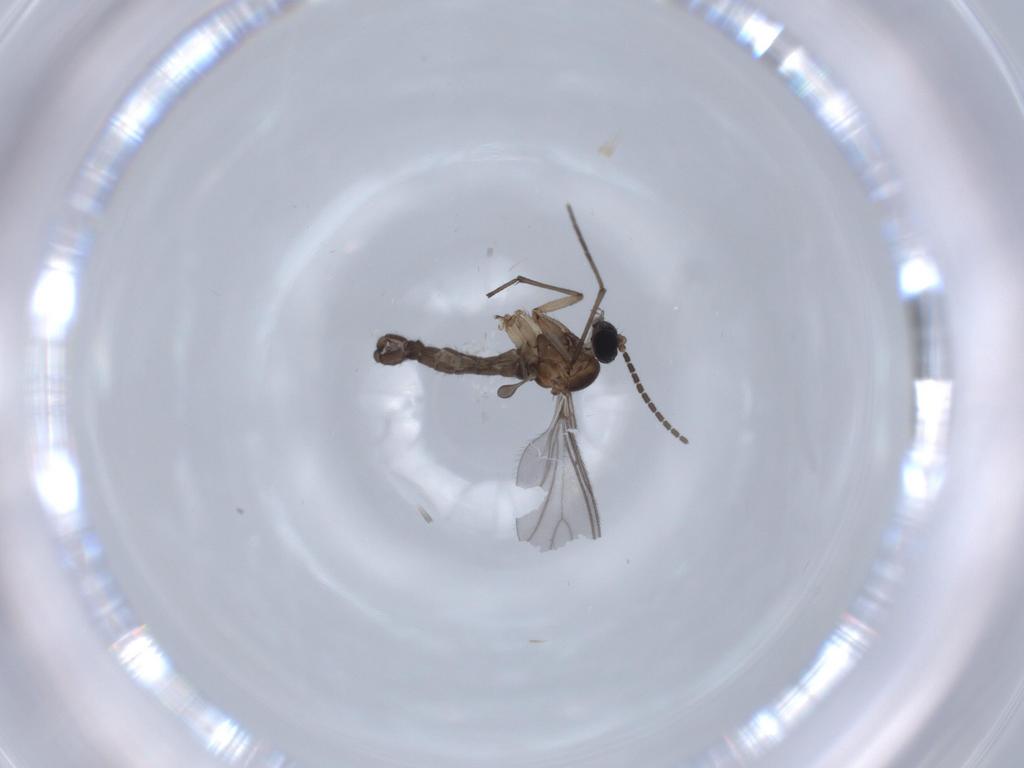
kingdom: Animalia
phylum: Arthropoda
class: Insecta
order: Diptera
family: Sciaridae
